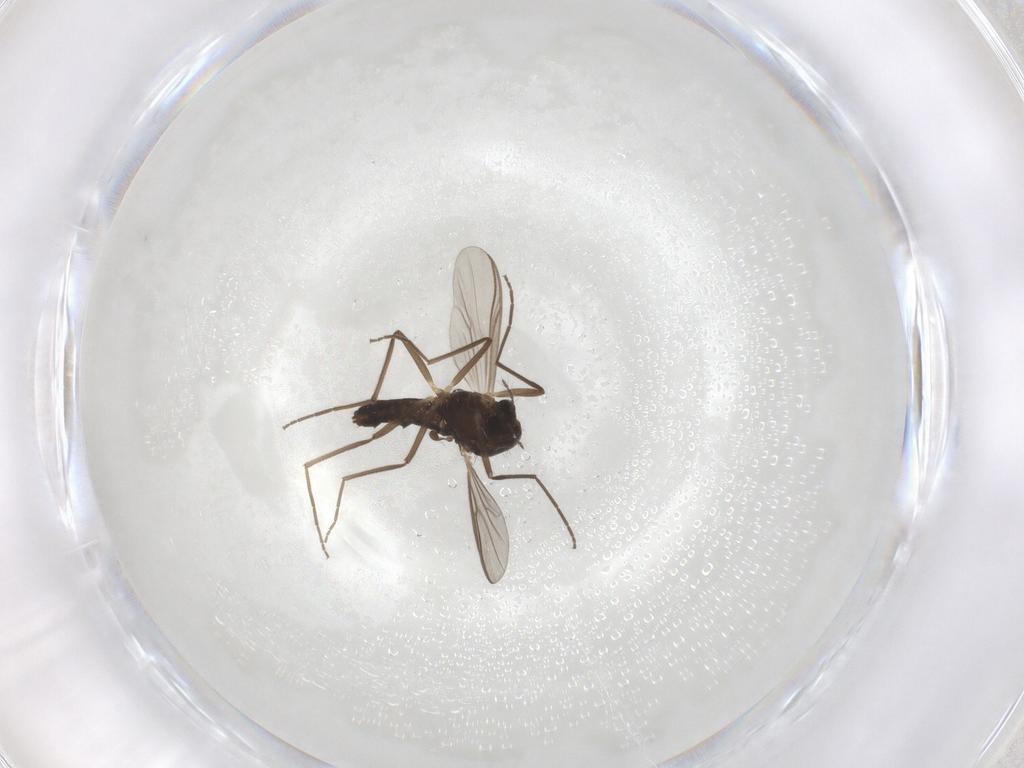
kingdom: Animalia
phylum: Arthropoda
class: Insecta
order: Diptera
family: Chironomidae
